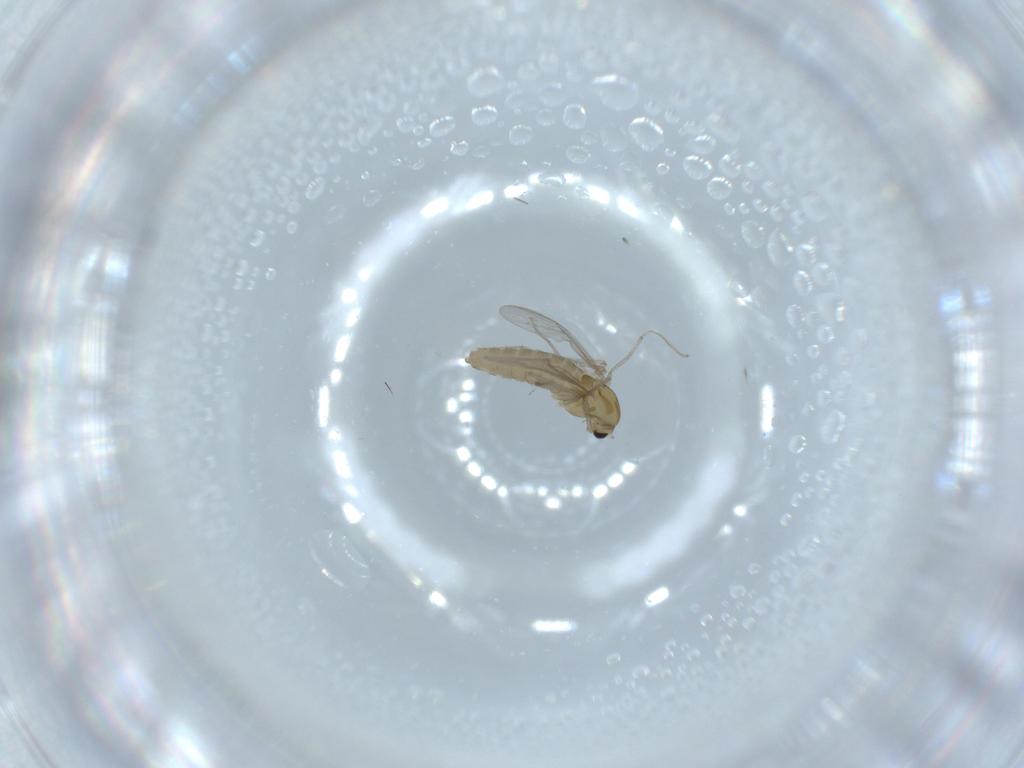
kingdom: Animalia
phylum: Arthropoda
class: Insecta
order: Diptera
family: Chironomidae
